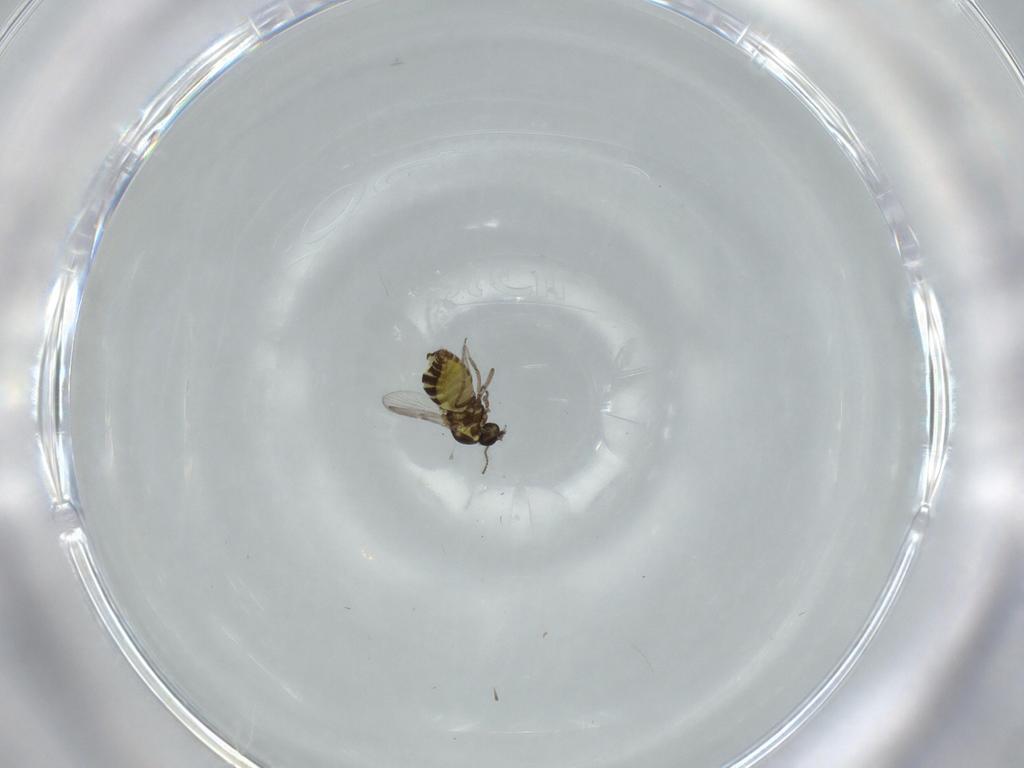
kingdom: Animalia
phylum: Arthropoda
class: Insecta
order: Diptera
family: Ceratopogonidae
